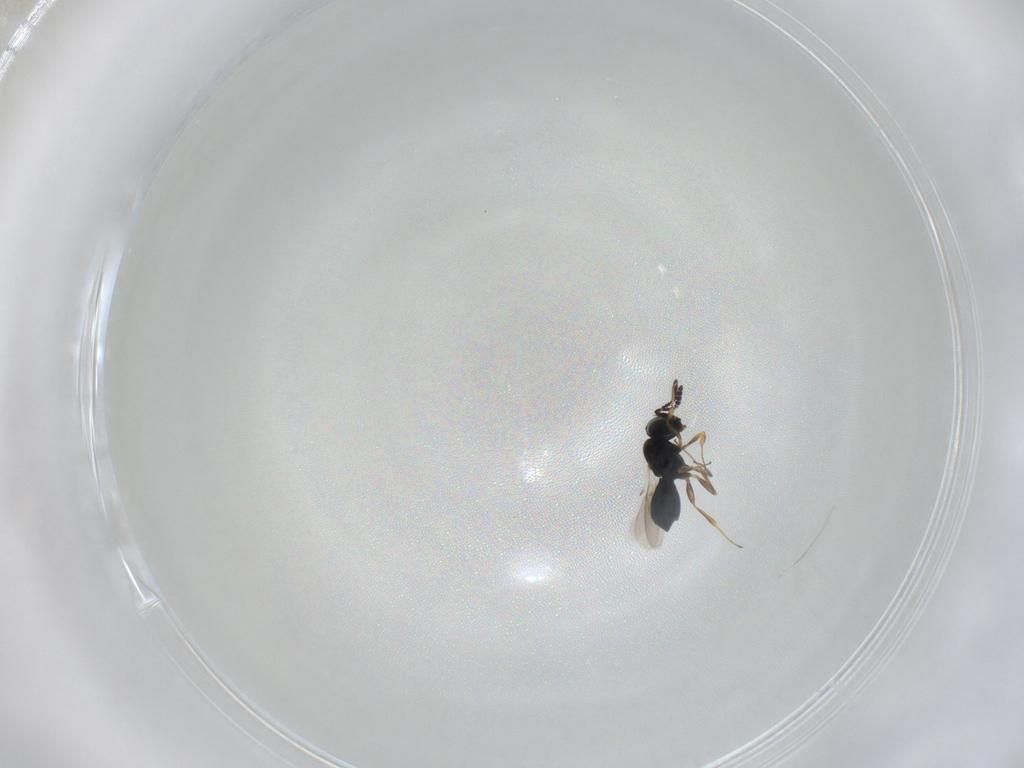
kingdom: Animalia
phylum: Arthropoda
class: Insecta
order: Hymenoptera
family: Scelionidae
